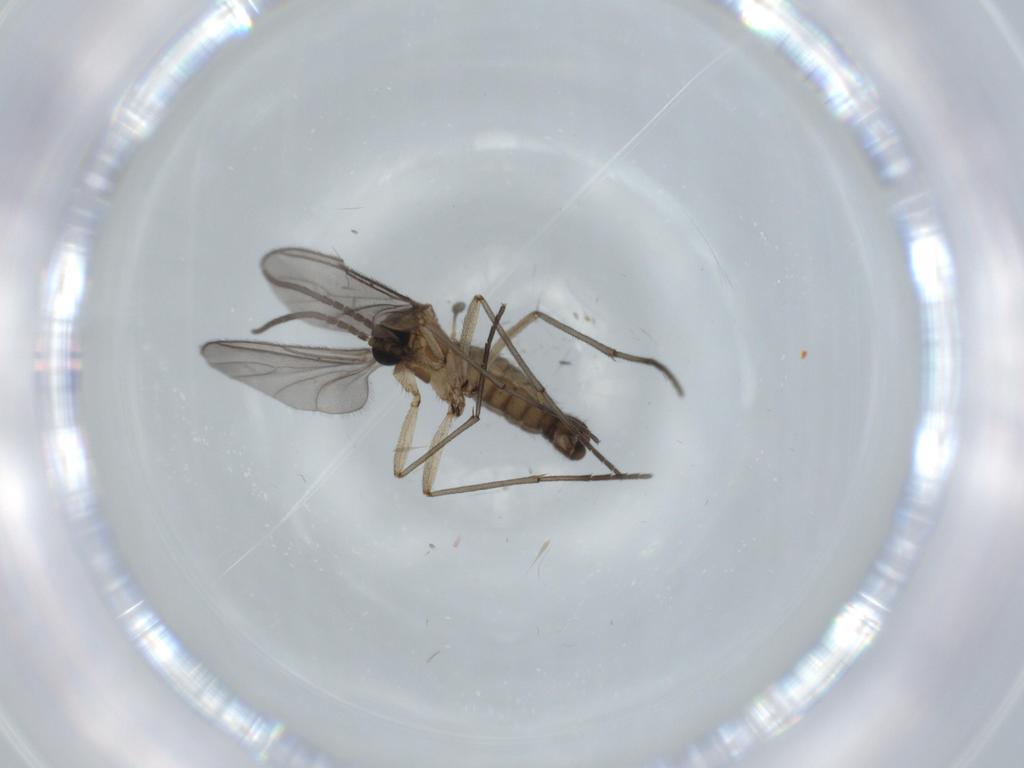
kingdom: Animalia
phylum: Arthropoda
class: Insecta
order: Diptera
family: Sciaridae
